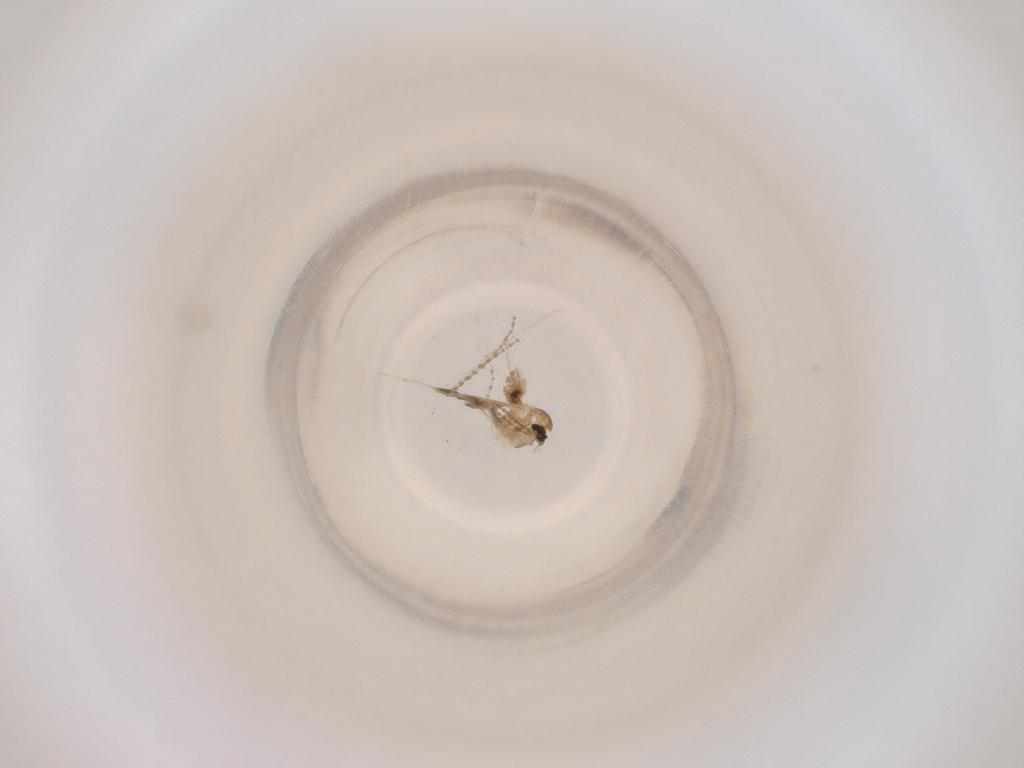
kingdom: Animalia
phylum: Arthropoda
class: Insecta
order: Diptera
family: Cecidomyiidae
